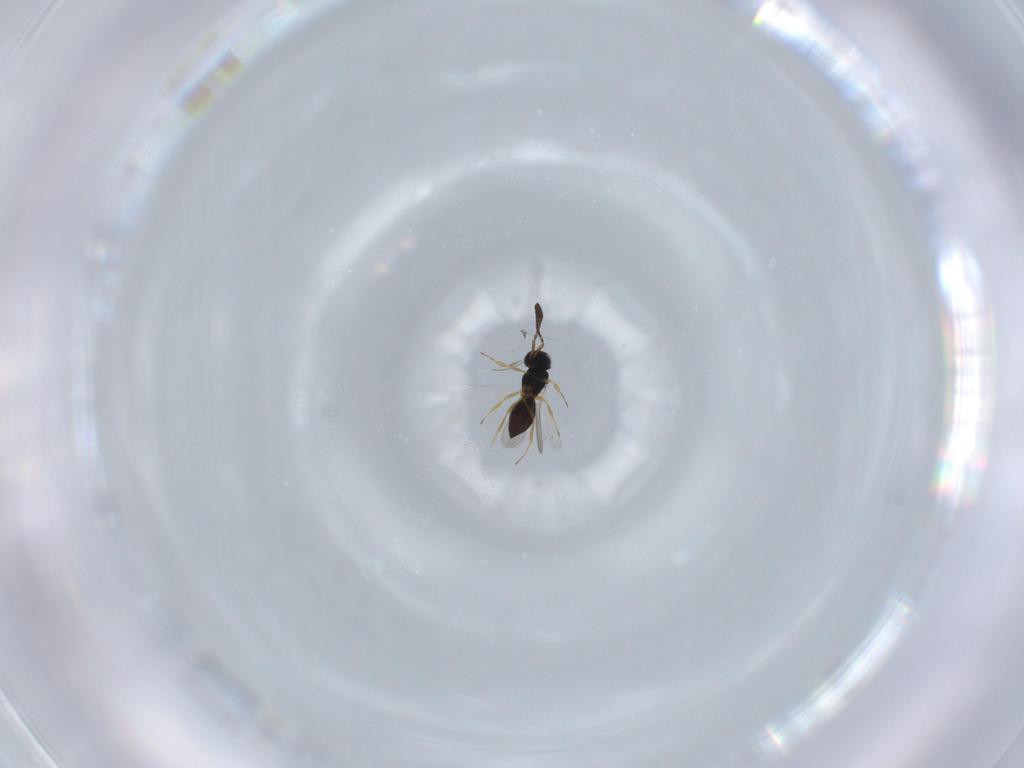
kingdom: Animalia
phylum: Arthropoda
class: Insecta
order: Hymenoptera
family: Scelionidae
